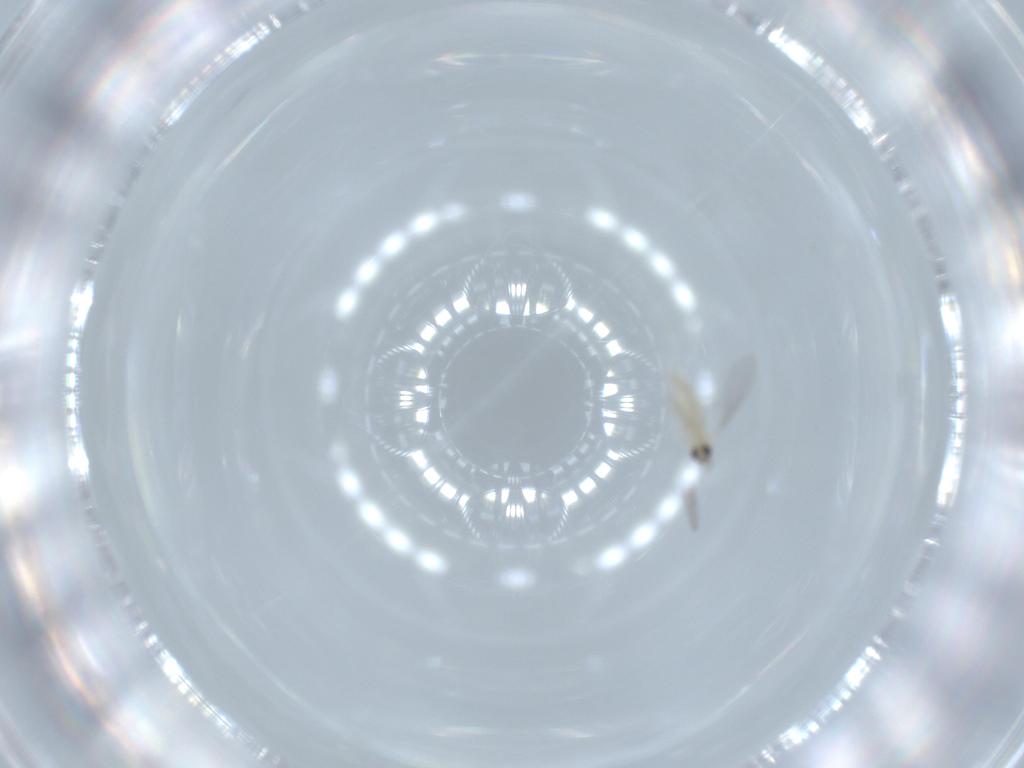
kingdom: Animalia
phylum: Arthropoda
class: Insecta
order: Diptera
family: Cecidomyiidae
